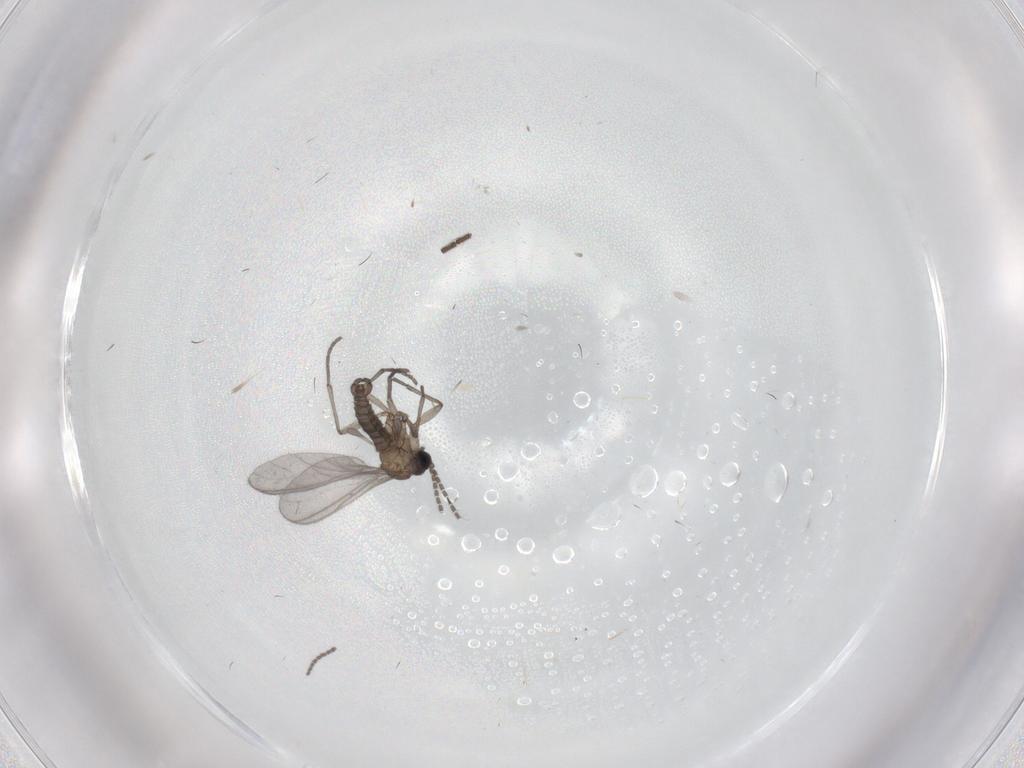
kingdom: Animalia
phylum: Arthropoda
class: Insecta
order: Diptera
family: Sciaridae
